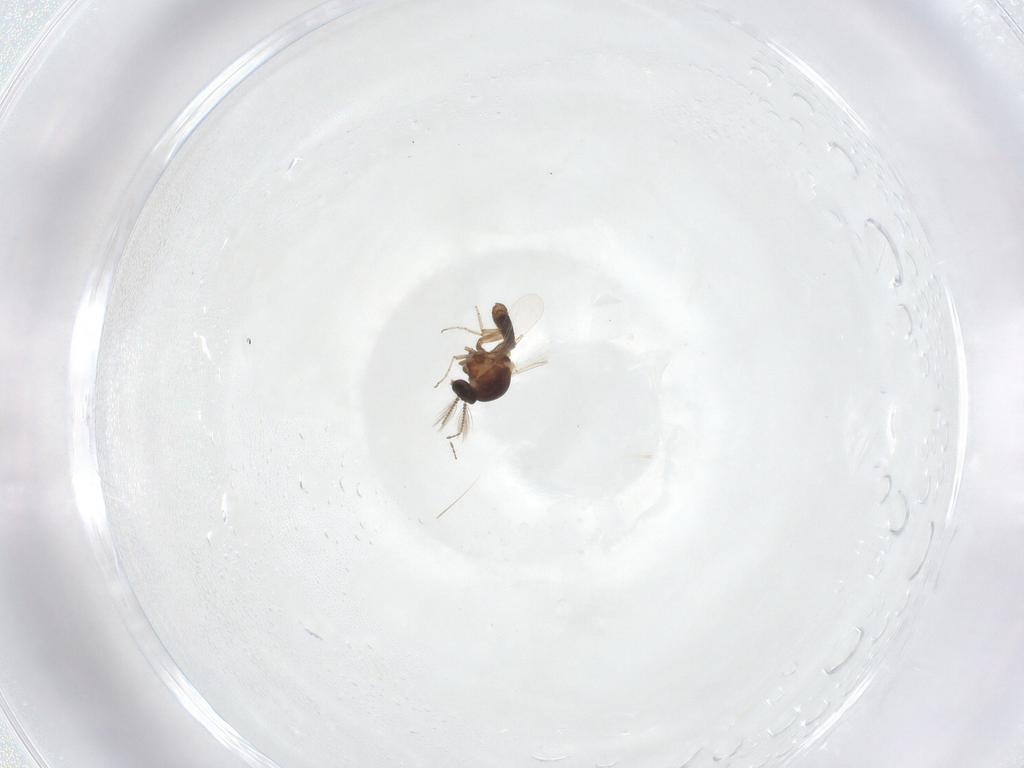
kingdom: Animalia
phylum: Arthropoda
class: Insecta
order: Diptera
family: Ceratopogonidae
